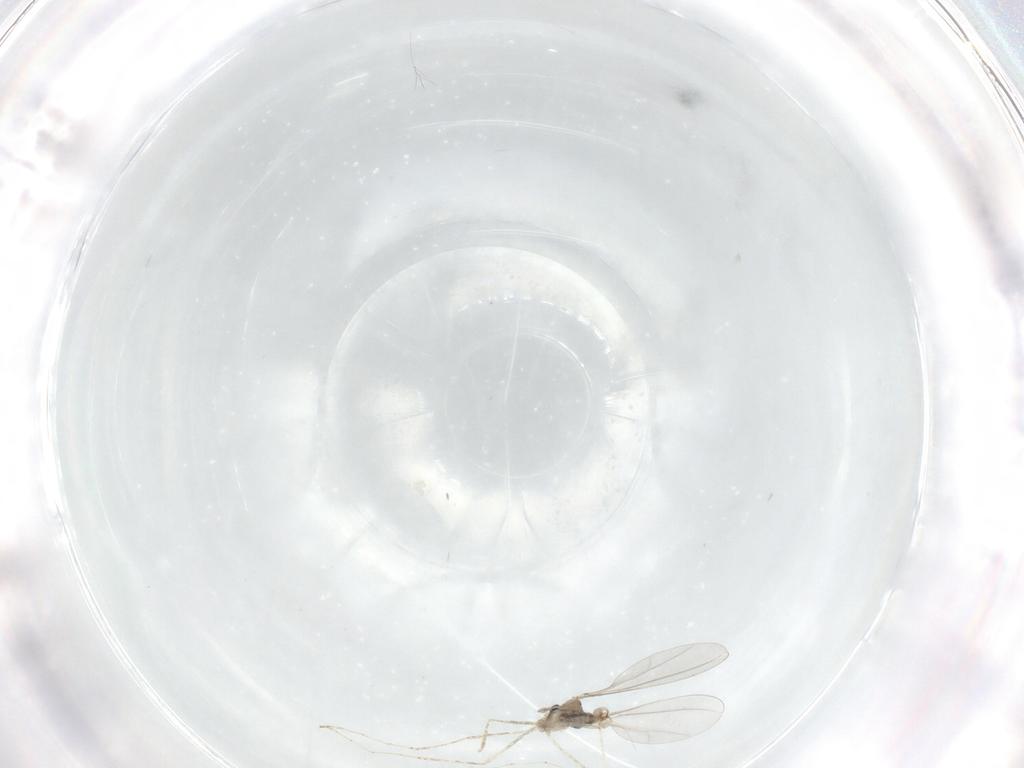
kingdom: Animalia
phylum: Arthropoda
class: Insecta
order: Diptera
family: Cecidomyiidae
